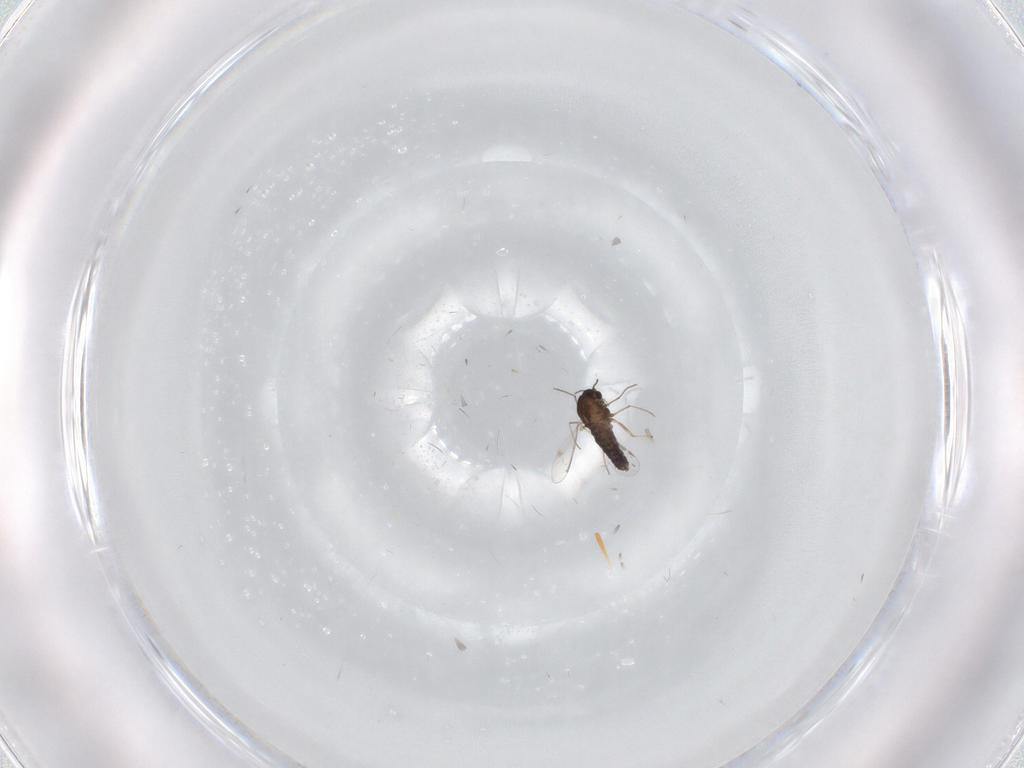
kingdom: Animalia
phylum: Arthropoda
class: Insecta
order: Diptera
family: Chironomidae
